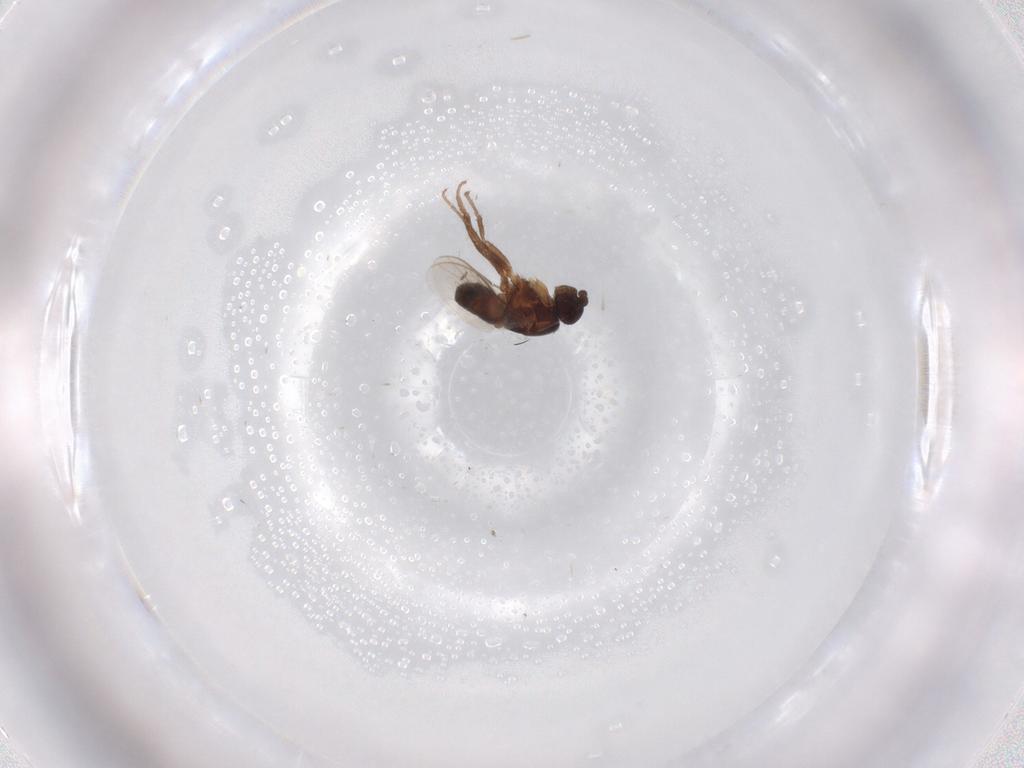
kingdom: Animalia
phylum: Arthropoda
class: Insecta
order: Diptera
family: Sphaeroceridae
